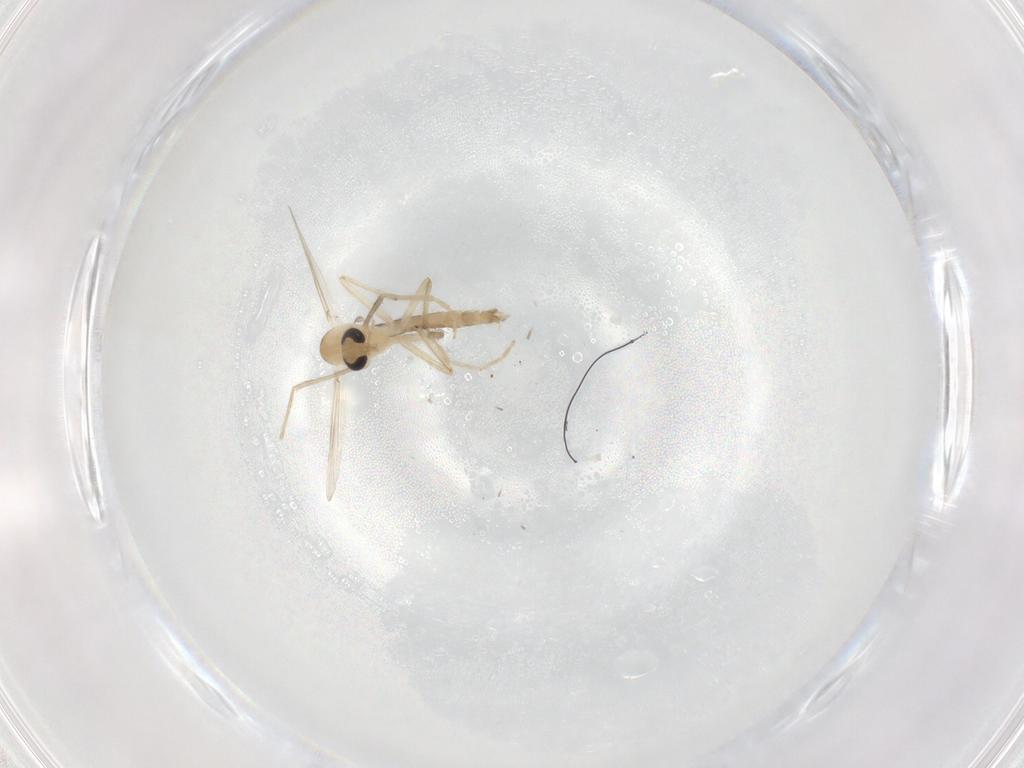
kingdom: Animalia
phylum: Arthropoda
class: Insecta
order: Diptera
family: Chironomidae
